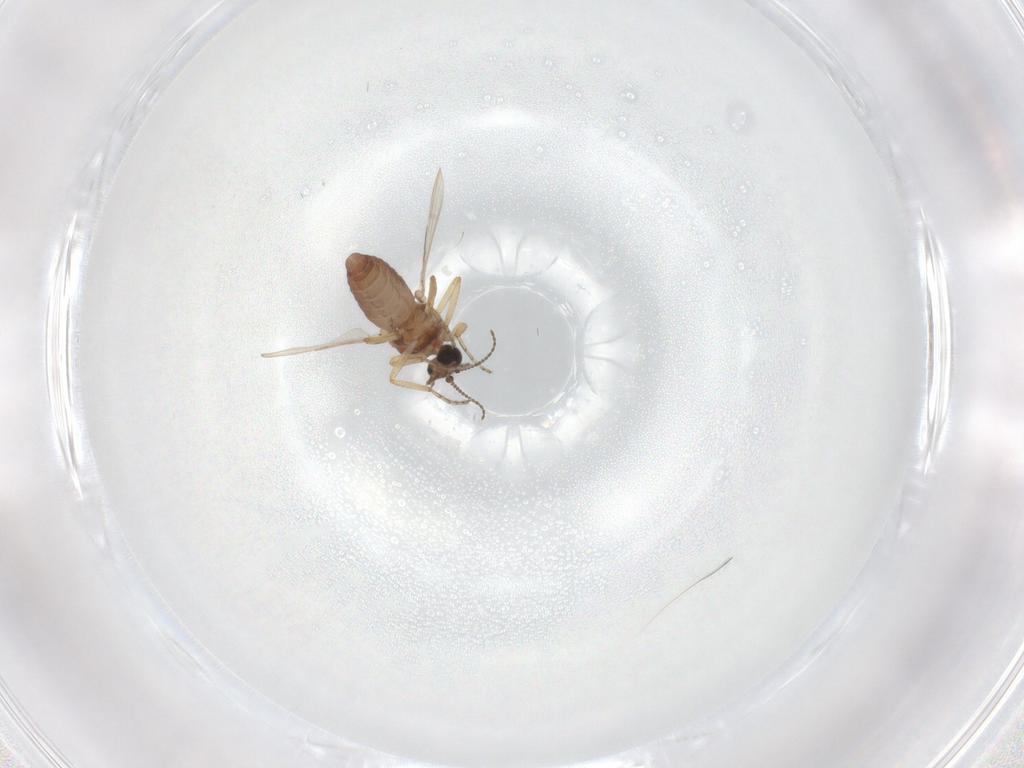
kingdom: Animalia
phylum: Arthropoda
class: Insecta
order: Diptera
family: Ceratopogonidae
